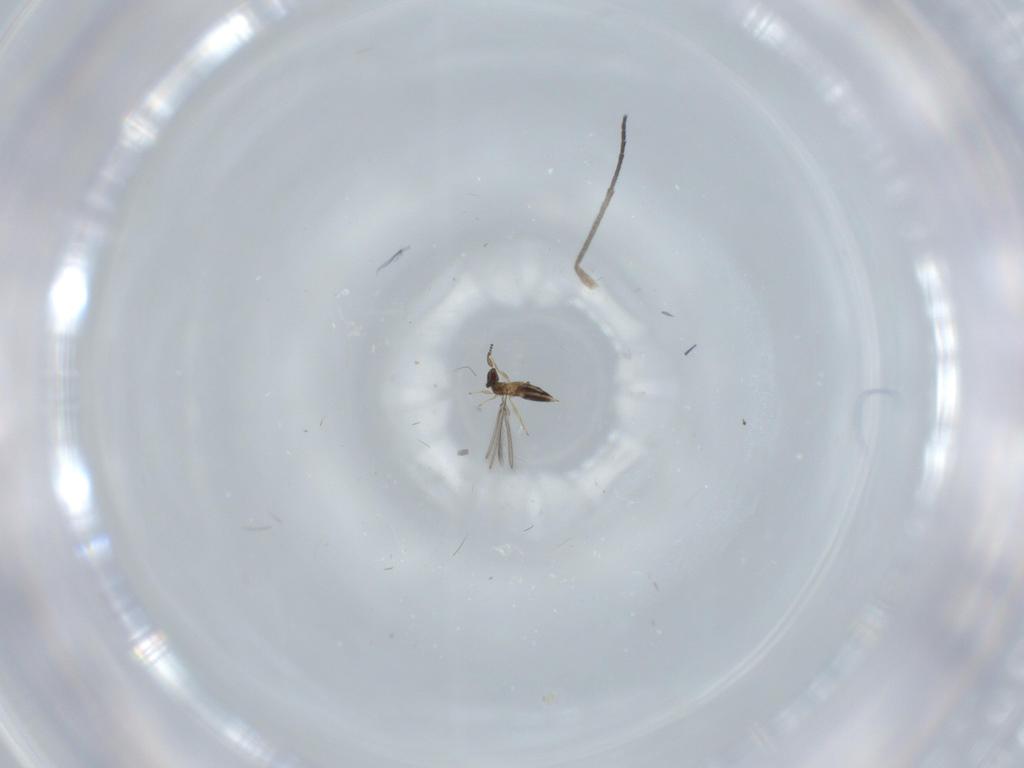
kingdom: Animalia
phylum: Arthropoda
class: Insecta
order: Hymenoptera
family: Mymaridae
